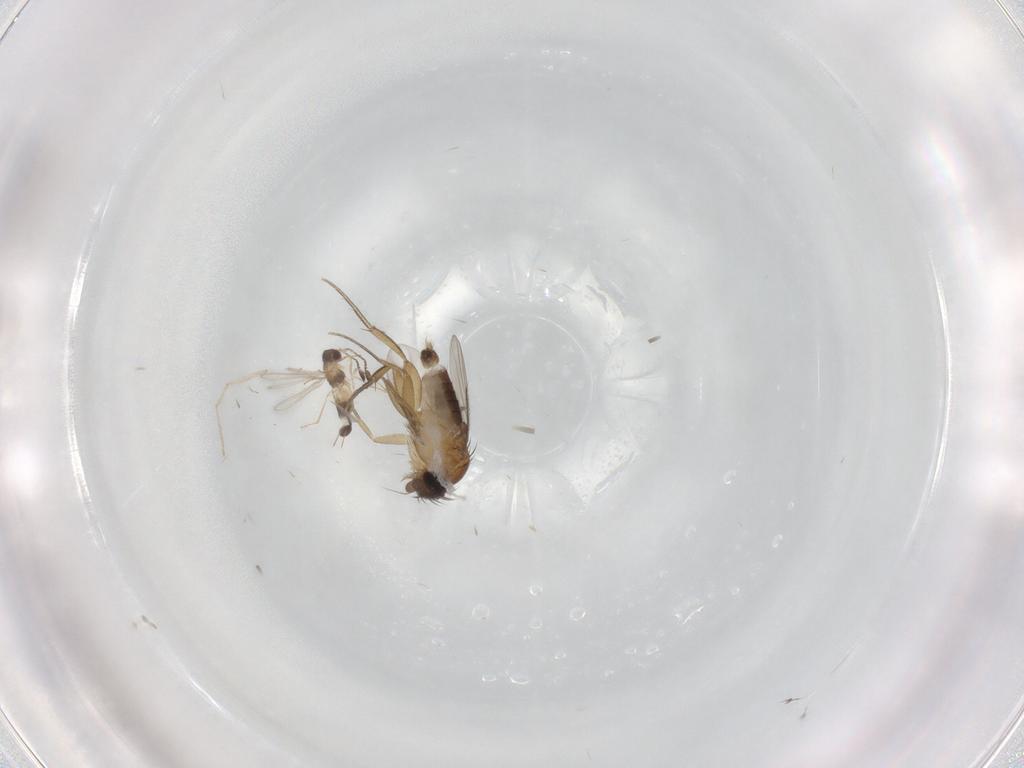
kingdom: Animalia
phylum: Arthropoda
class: Insecta
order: Diptera
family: Dolichopodidae
